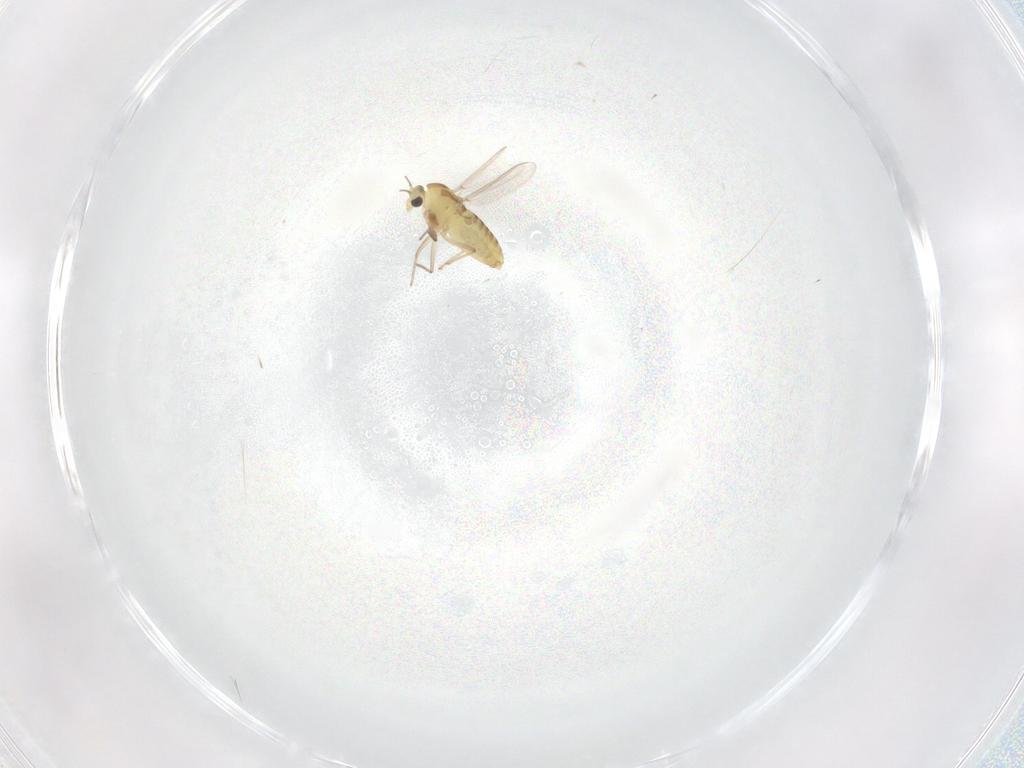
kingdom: Animalia
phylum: Arthropoda
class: Insecta
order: Diptera
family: Chironomidae
